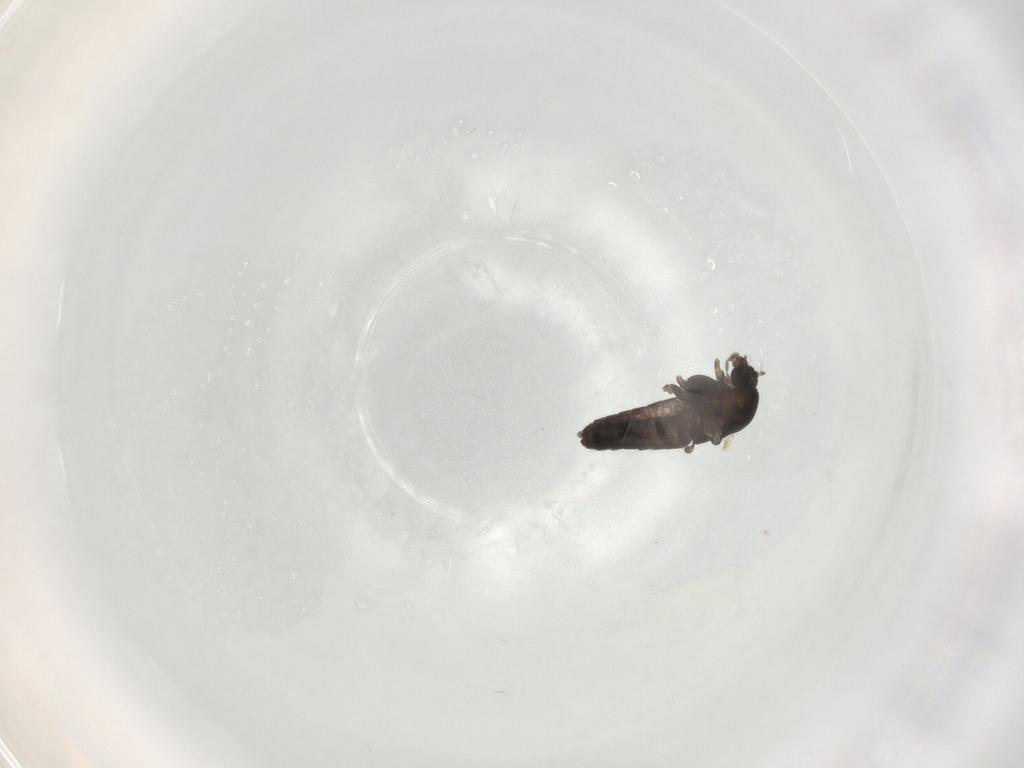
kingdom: Animalia
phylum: Arthropoda
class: Insecta
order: Diptera
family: Chironomidae
